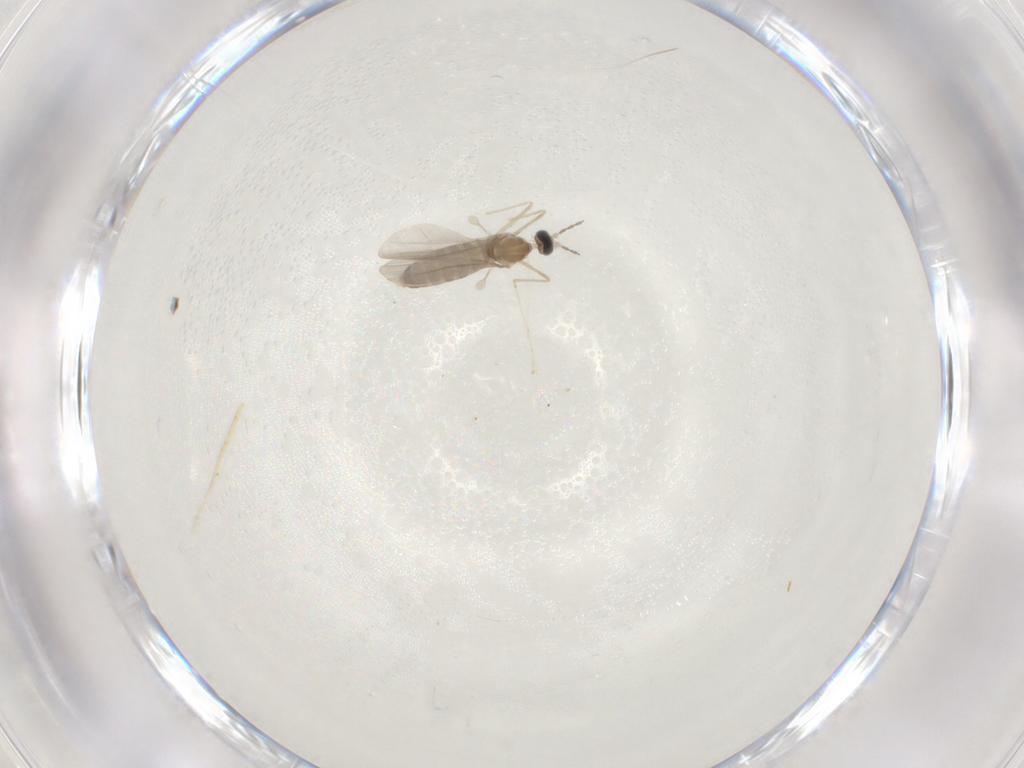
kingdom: Animalia
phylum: Arthropoda
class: Insecta
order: Diptera
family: Cecidomyiidae
